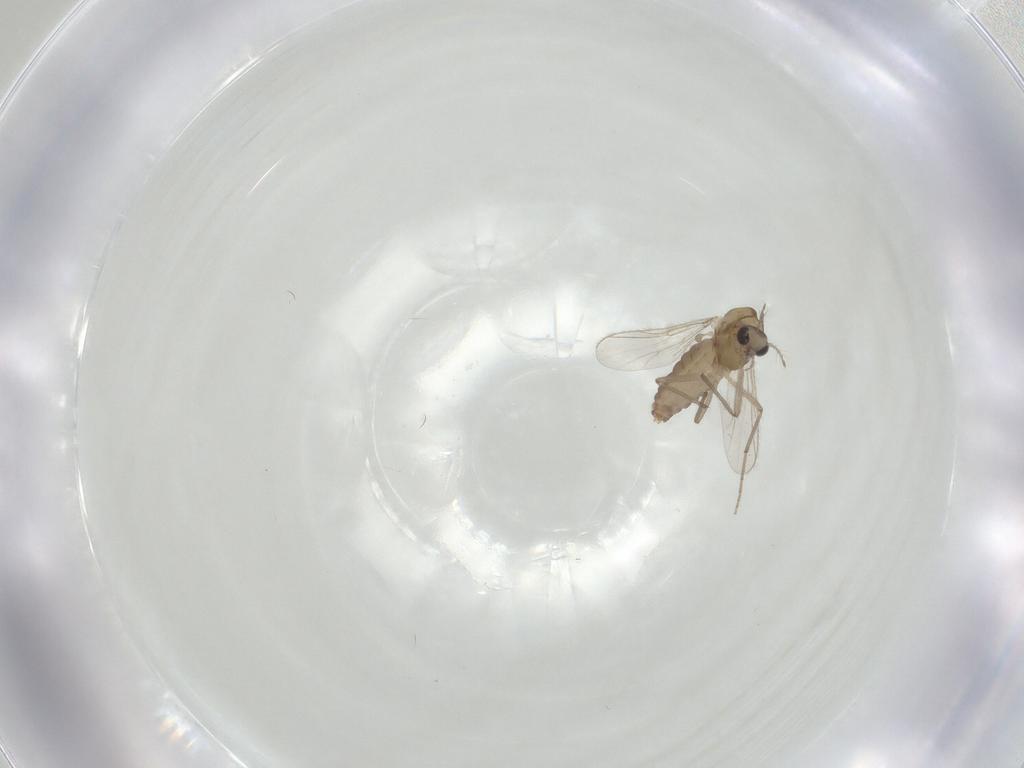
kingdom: Animalia
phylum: Arthropoda
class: Insecta
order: Diptera
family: Chironomidae
